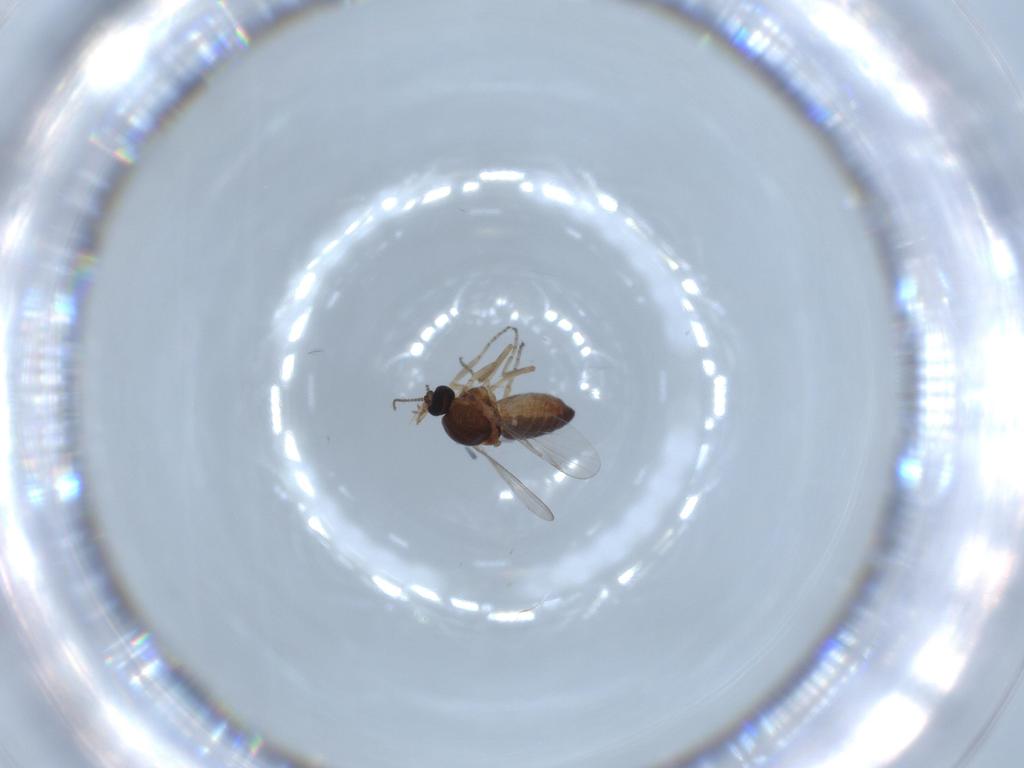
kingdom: Animalia
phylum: Arthropoda
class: Insecta
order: Diptera
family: Ceratopogonidae
